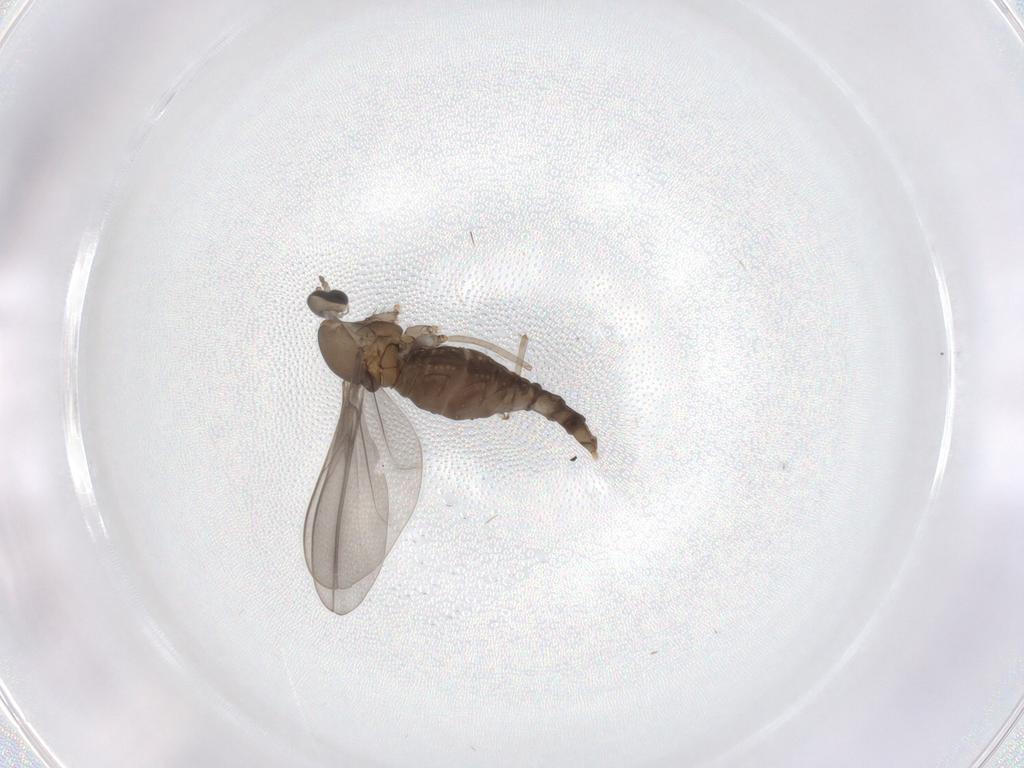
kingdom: Animalia
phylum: Arthropoda
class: Insecta
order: Diptera
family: Cecidomyiidae
